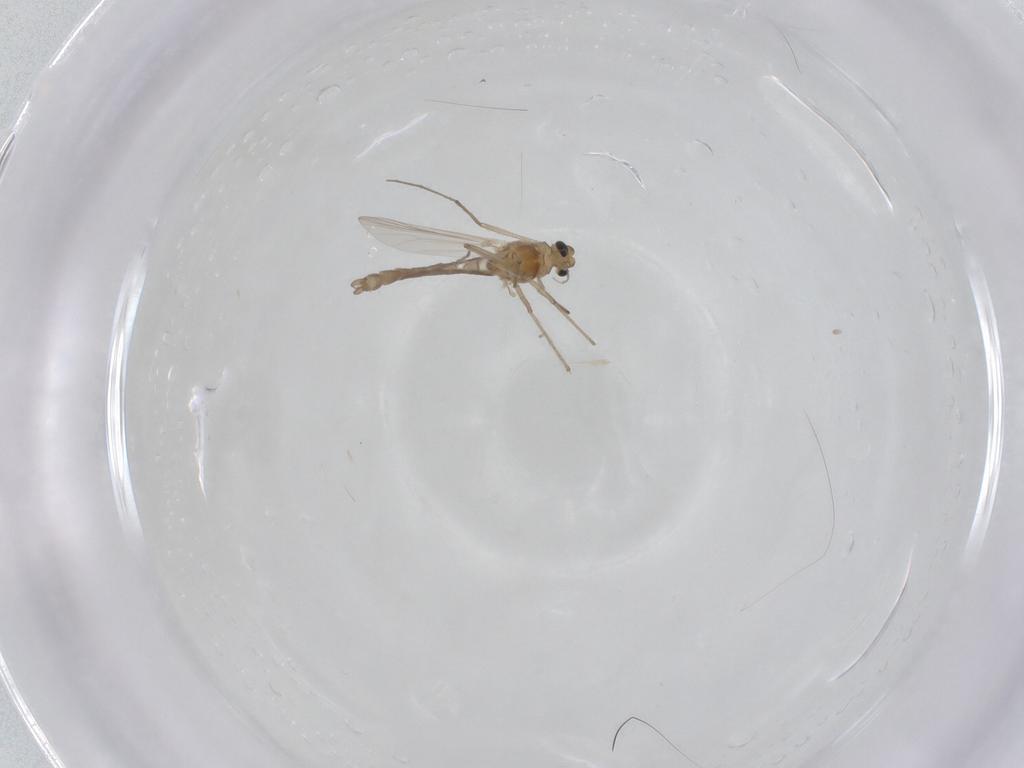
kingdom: Animalia
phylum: Arthropoda
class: Insecta
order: Diptera
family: Chironomidae
